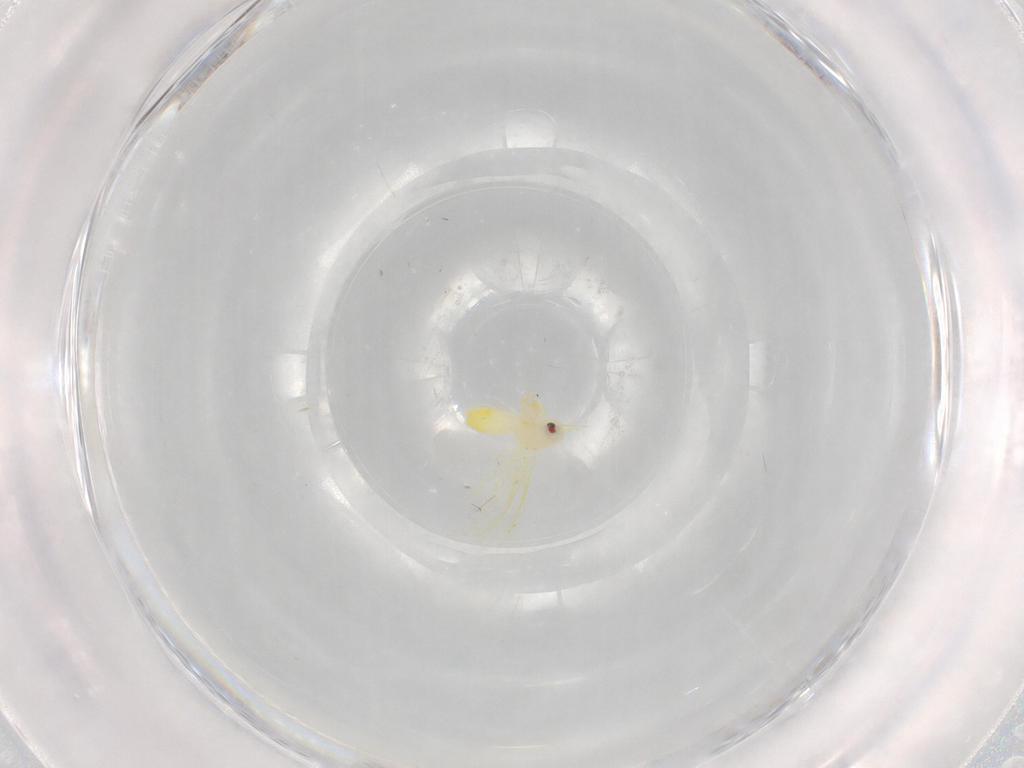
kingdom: Animalia
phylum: Arthropoda
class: Insecta
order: Hemiptera
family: Aleyrodidae
